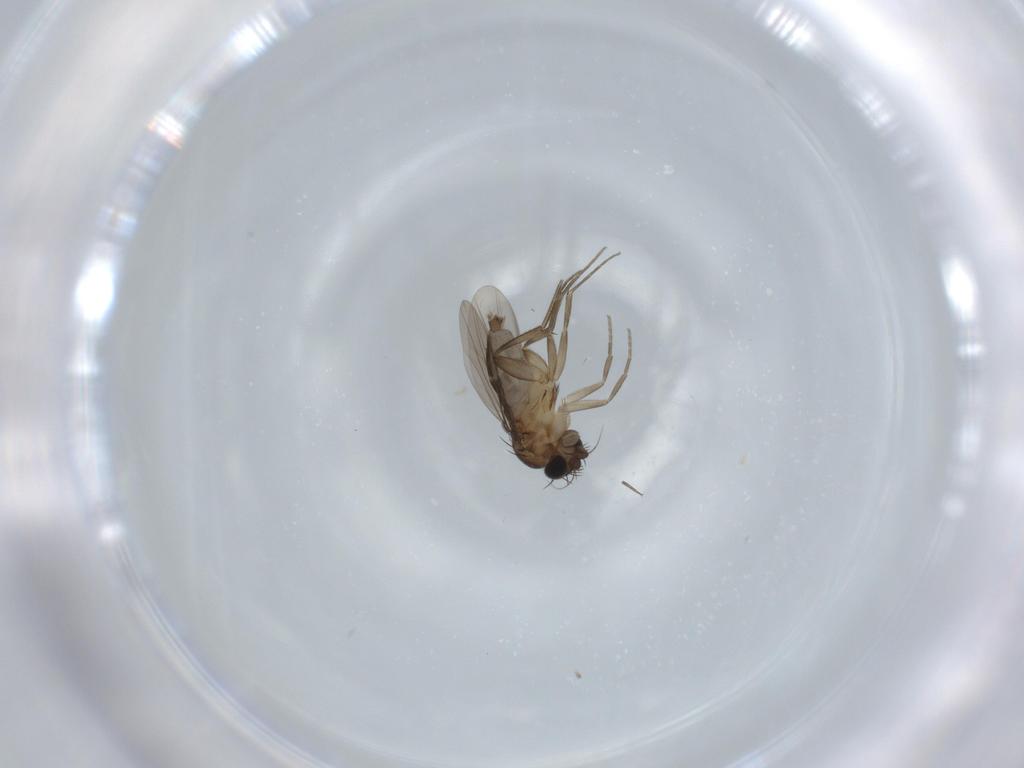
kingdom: Animalia
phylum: Arthropoda
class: Insecta
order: Diptera
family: Phoridae
